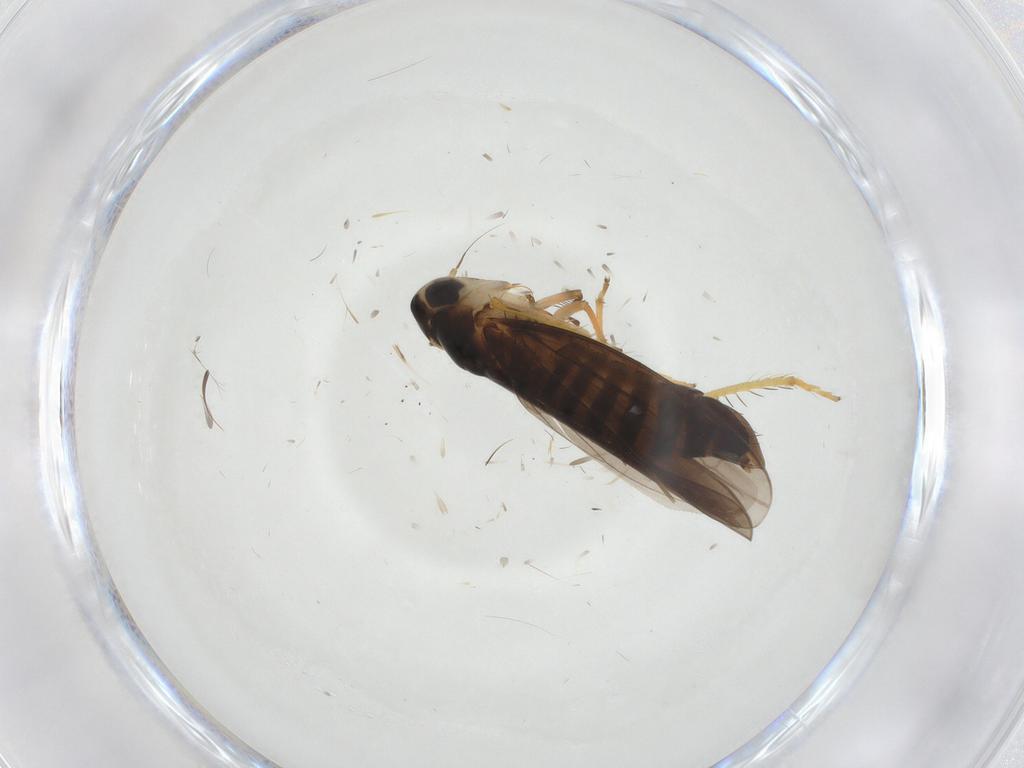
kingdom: Animalia
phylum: Arthropoda
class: Insecta
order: Hemiptera
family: Cicadellidae
